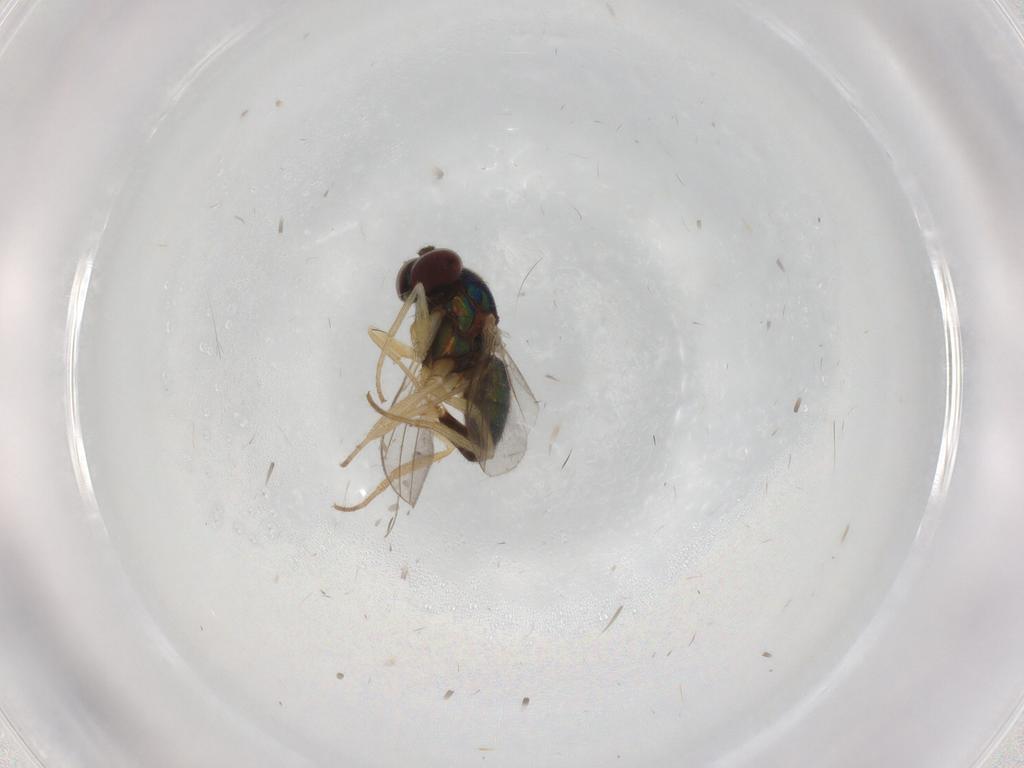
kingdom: Animalia
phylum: Arthropoda
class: Insecta
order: Diptera
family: Dolichopodidae
